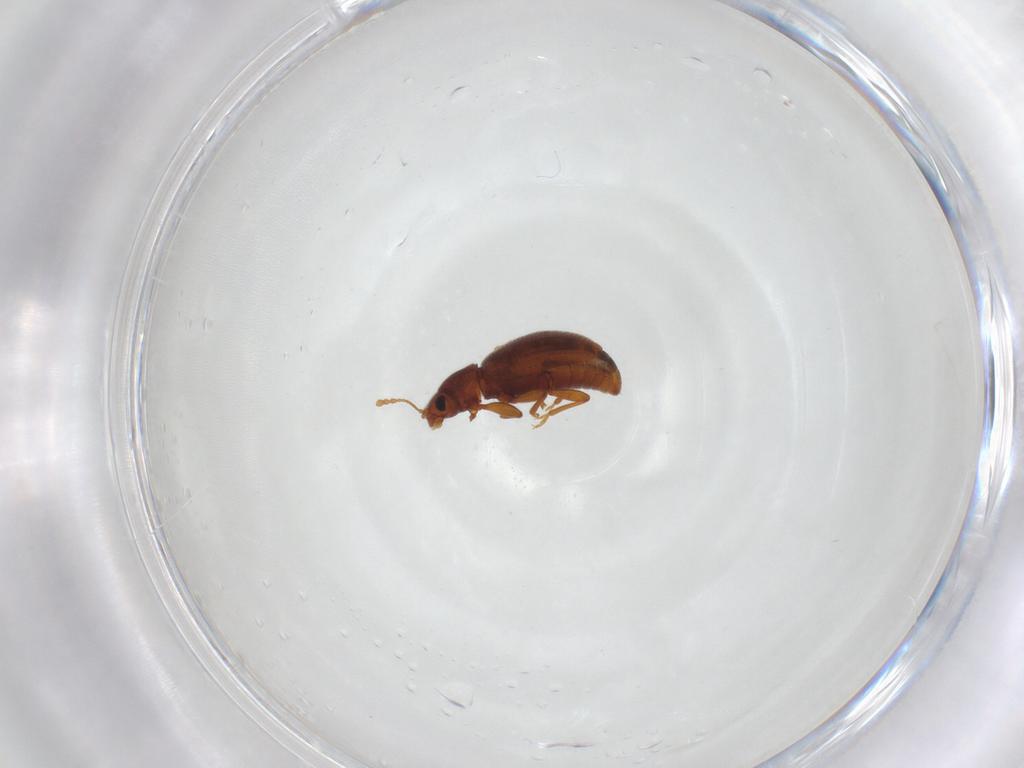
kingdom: Animalia
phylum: Arthropoda
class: Insecta
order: Coleoptera
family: Latridiidae
